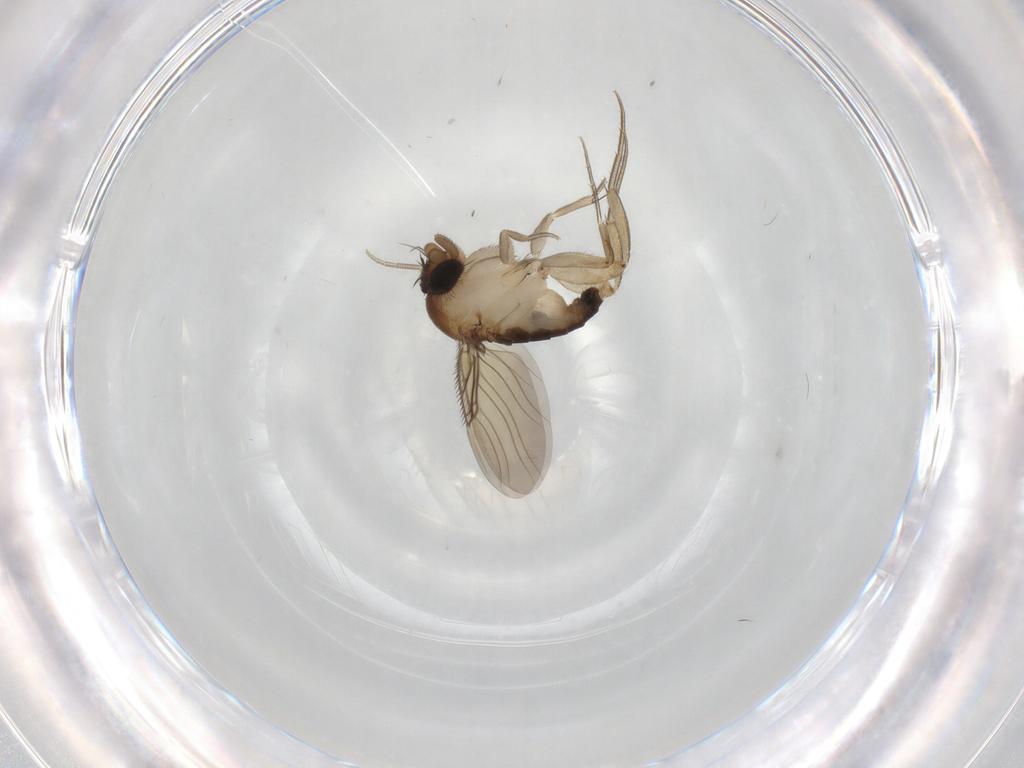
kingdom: Animalia
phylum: Arthropoda
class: Insecta
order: Diptera
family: Phoridae
